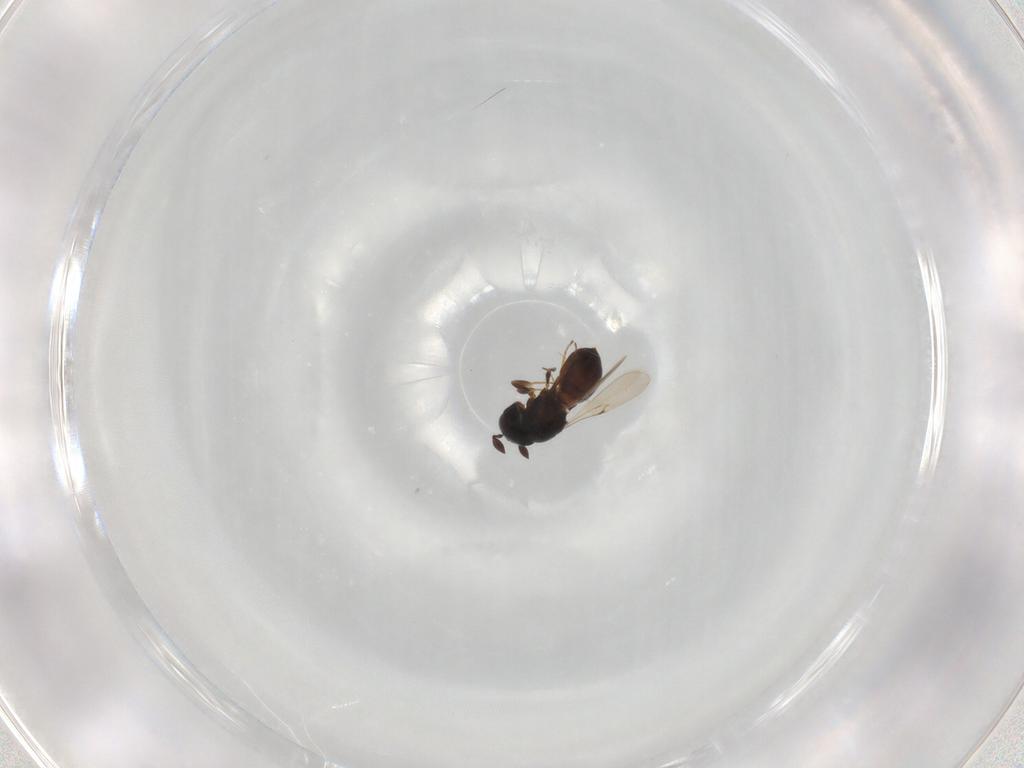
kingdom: Animalia
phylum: Arthropoda
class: Insecta
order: Hymenoptera
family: Scelionidae
